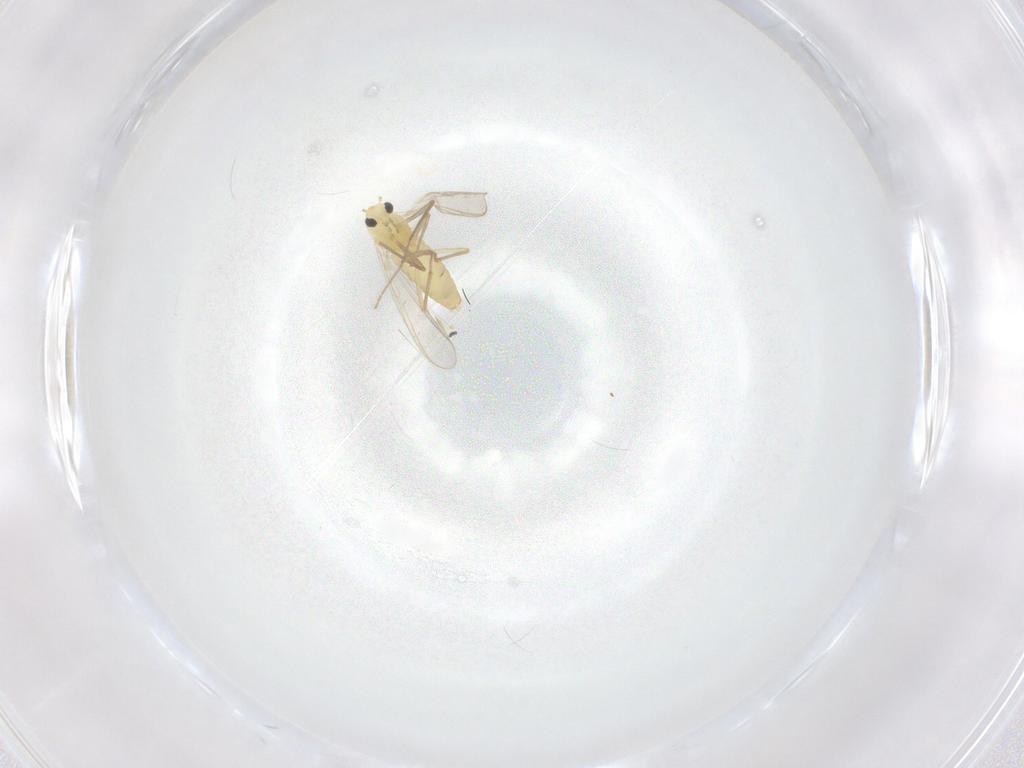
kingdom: Animalia
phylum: Arthropoda
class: Insecta
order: Diptera
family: Chironomidae
